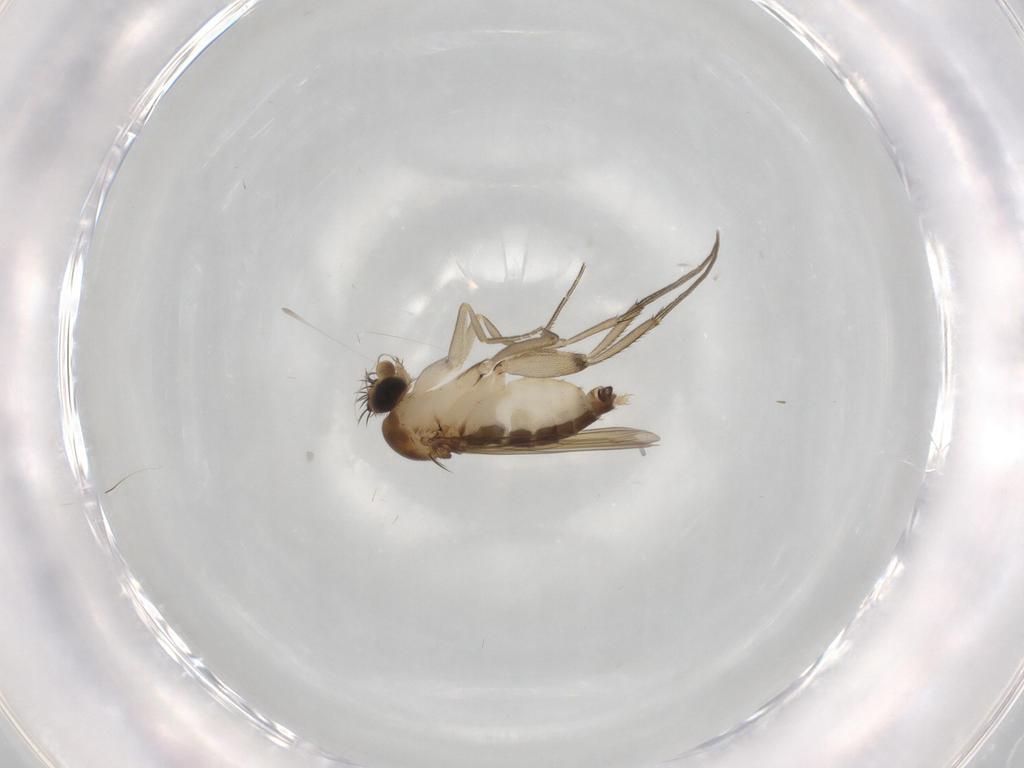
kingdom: Animalia
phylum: Arthropoda
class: Insecta
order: Diptera
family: Phoridae
